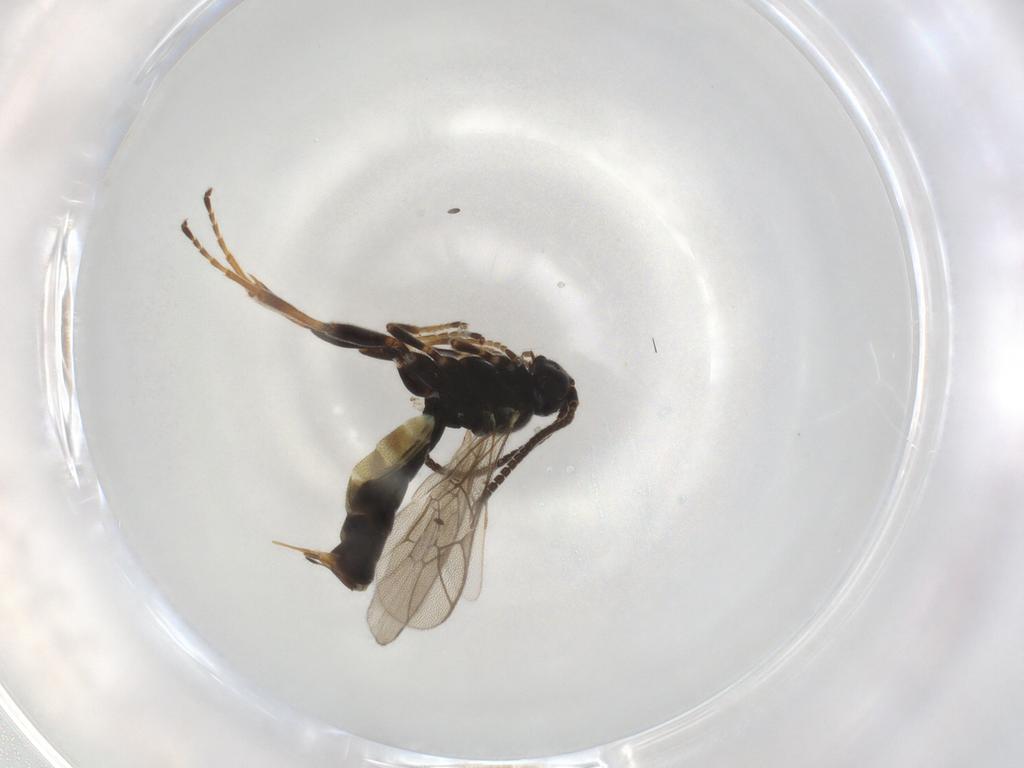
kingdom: Animalia
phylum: Arthropoda
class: Insecta
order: Hymenoptera
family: Ichneumonidae
